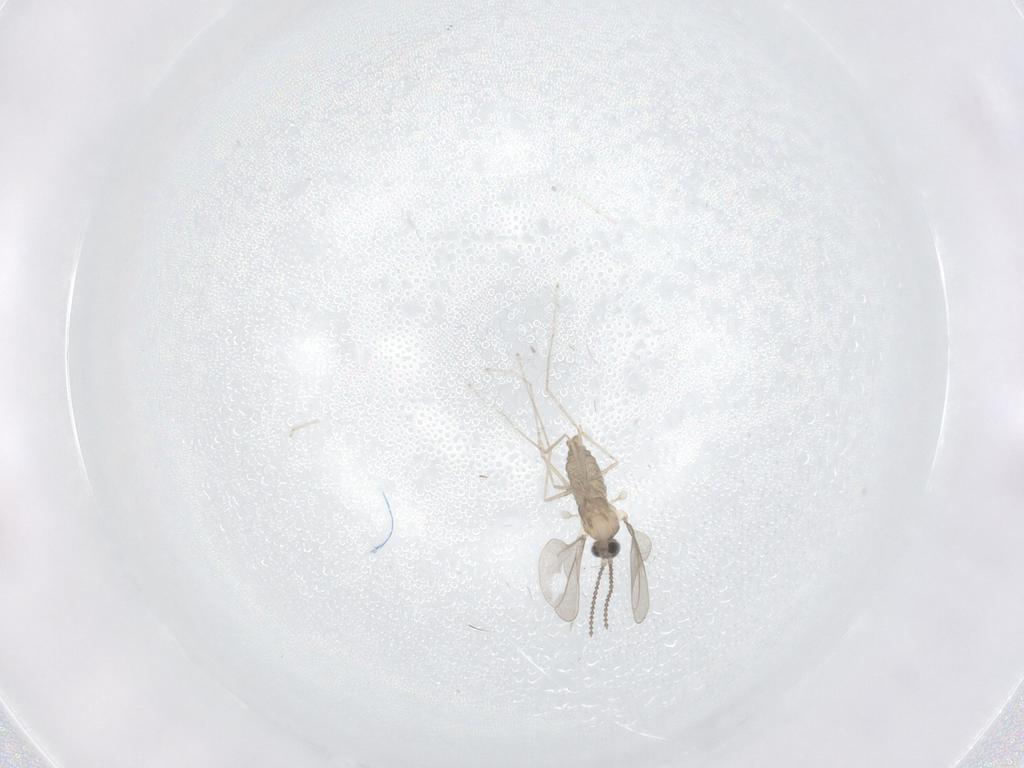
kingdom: Animalia
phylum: Arthropoda
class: Insecta
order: Diptera
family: Cecidomyiidae
